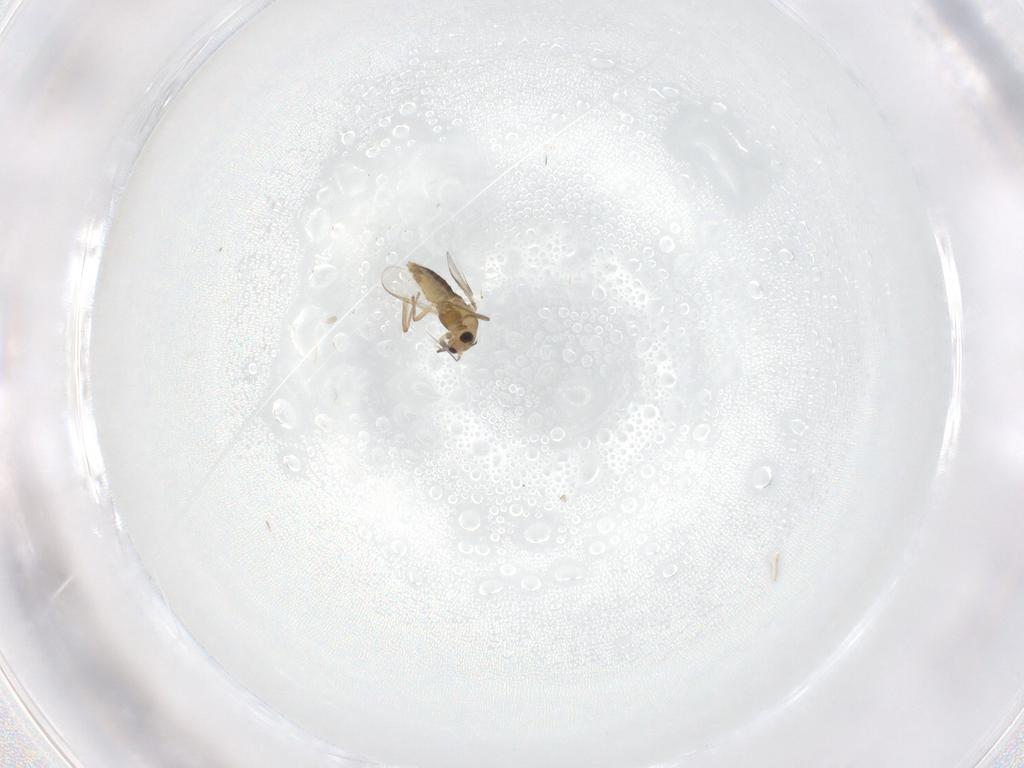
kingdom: Animalia
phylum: Arthropoda
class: Insecta
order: Diptera
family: Chironomidae
